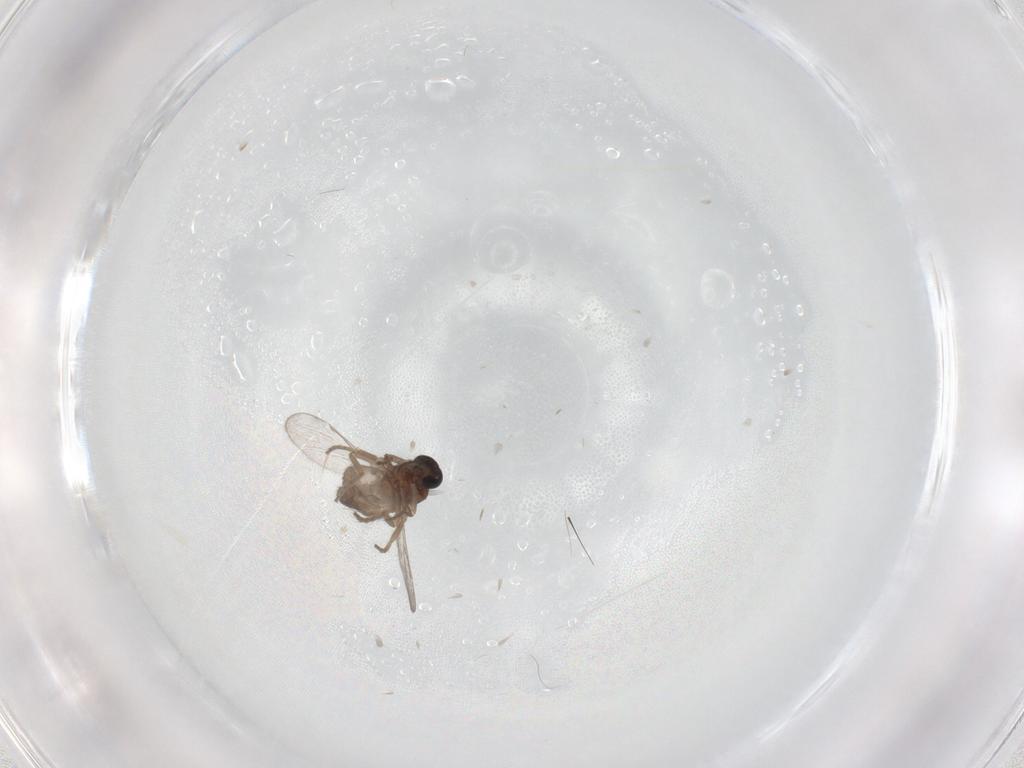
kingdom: Animalia
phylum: Arthropoda
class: Insecta
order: Diptera
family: Ceratopogonidae
